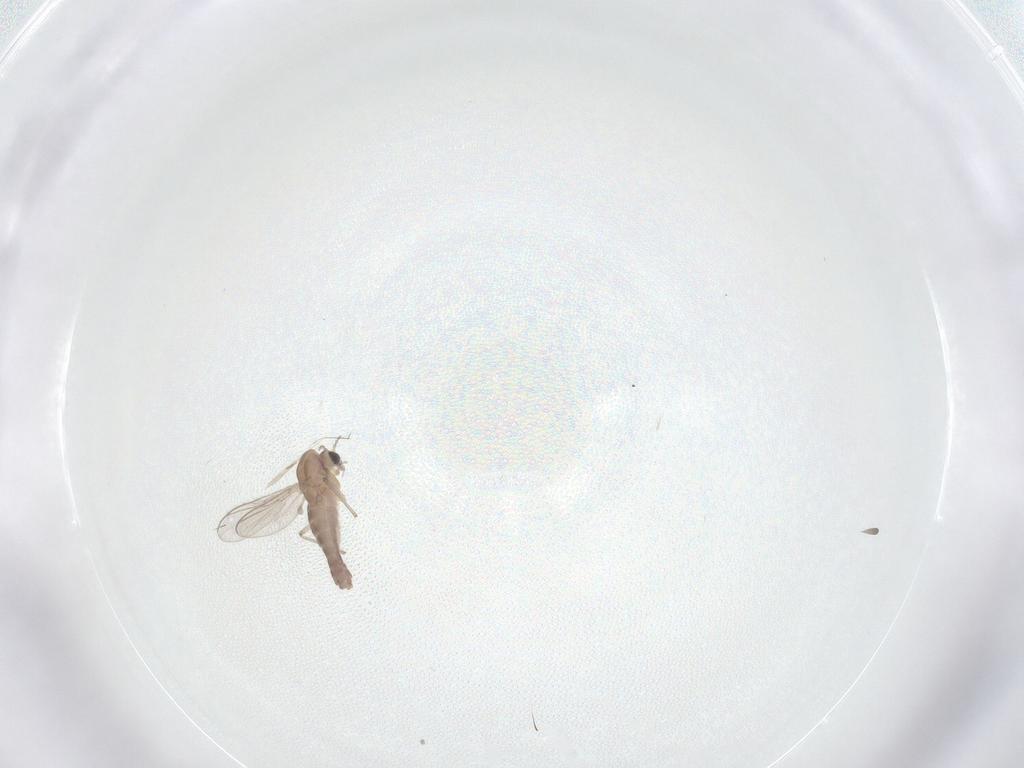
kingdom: Animalia
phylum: Arthropoda
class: Insecta
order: Diptera
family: Chironomidae
